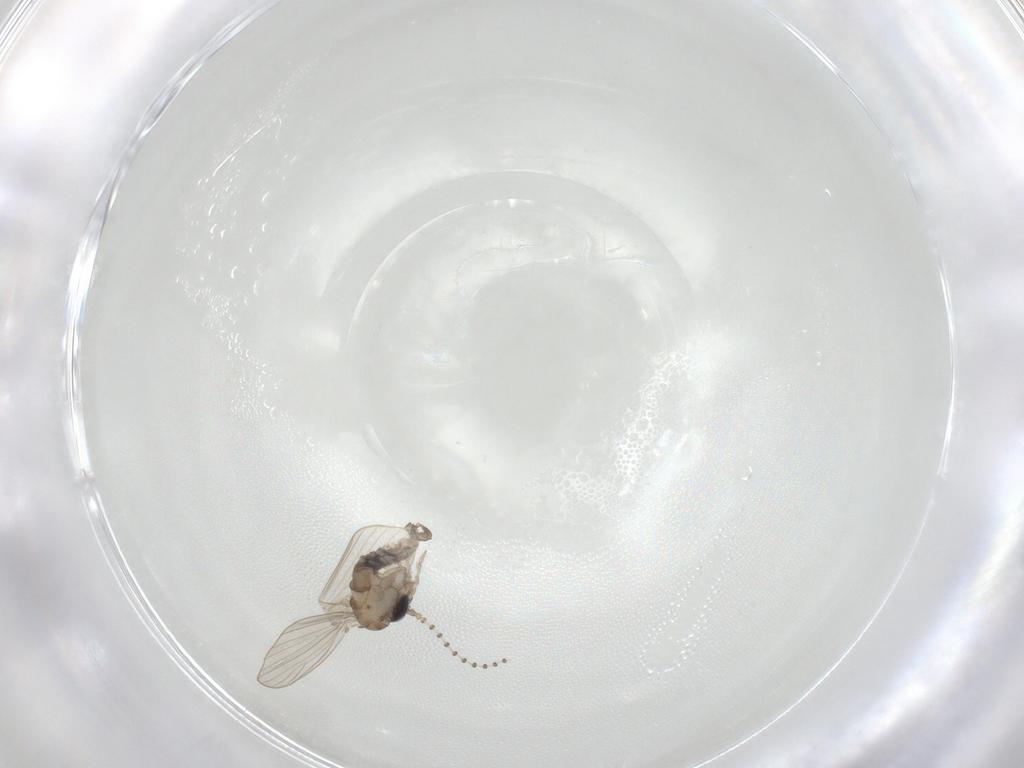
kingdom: Animalia
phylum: Arthropoda
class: Insecta
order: Diptera
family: Psychodidae
